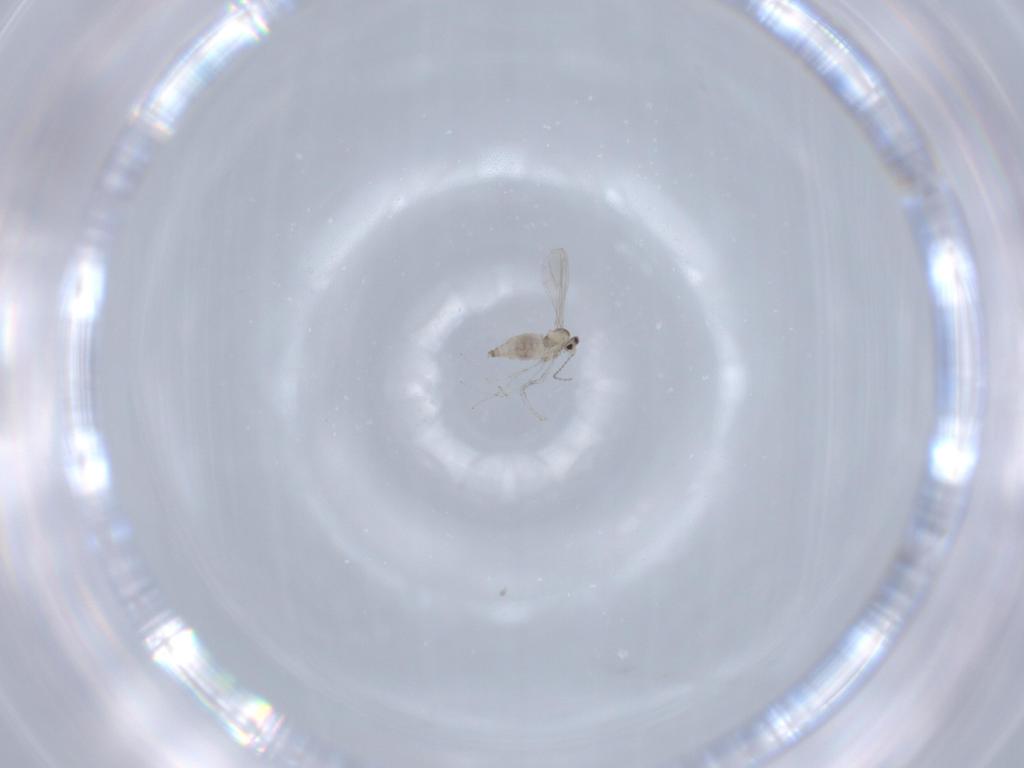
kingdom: Animalia
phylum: Arthropoda
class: Insecta
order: Diptera
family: Cecidomyiidae
